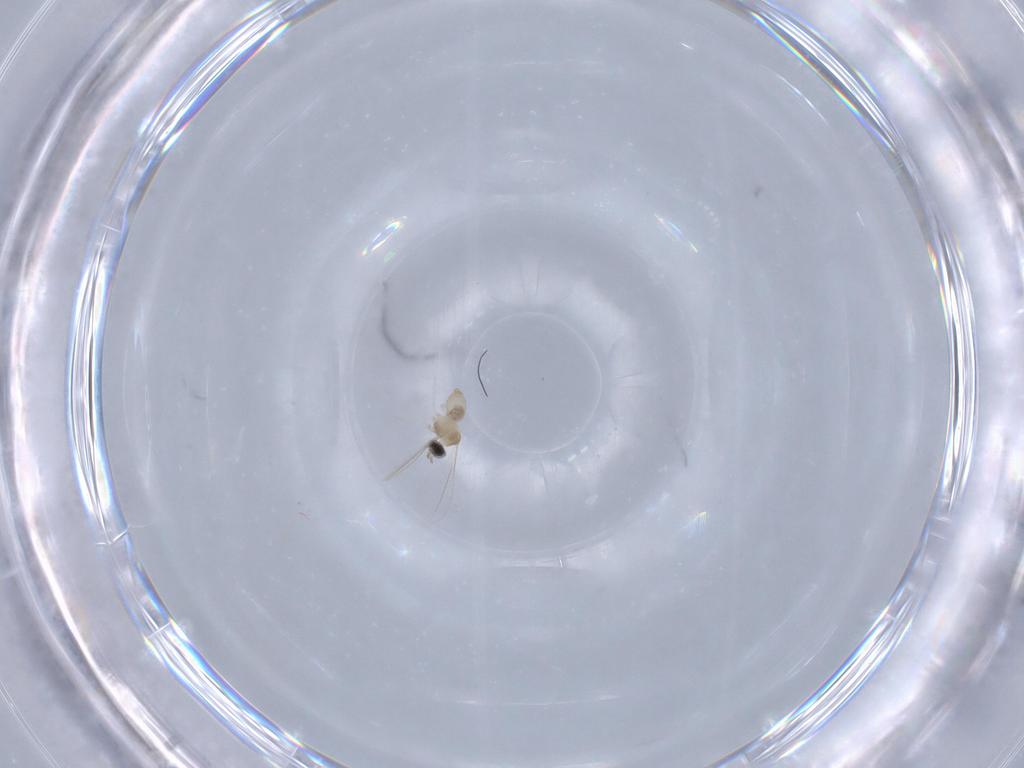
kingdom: Animalia
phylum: Arthropoda
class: Insecta
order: Diptera
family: Cecidomyiidae
